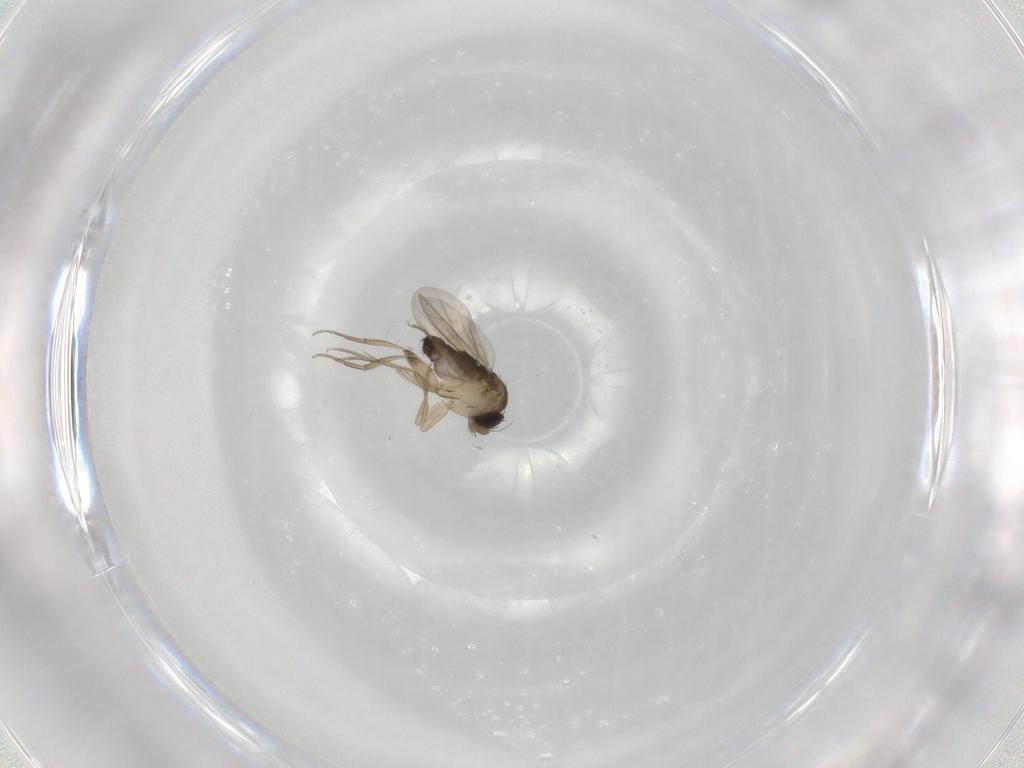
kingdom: Animalia
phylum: Arthropoda
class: Insecta
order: Diptera
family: Phoridae
